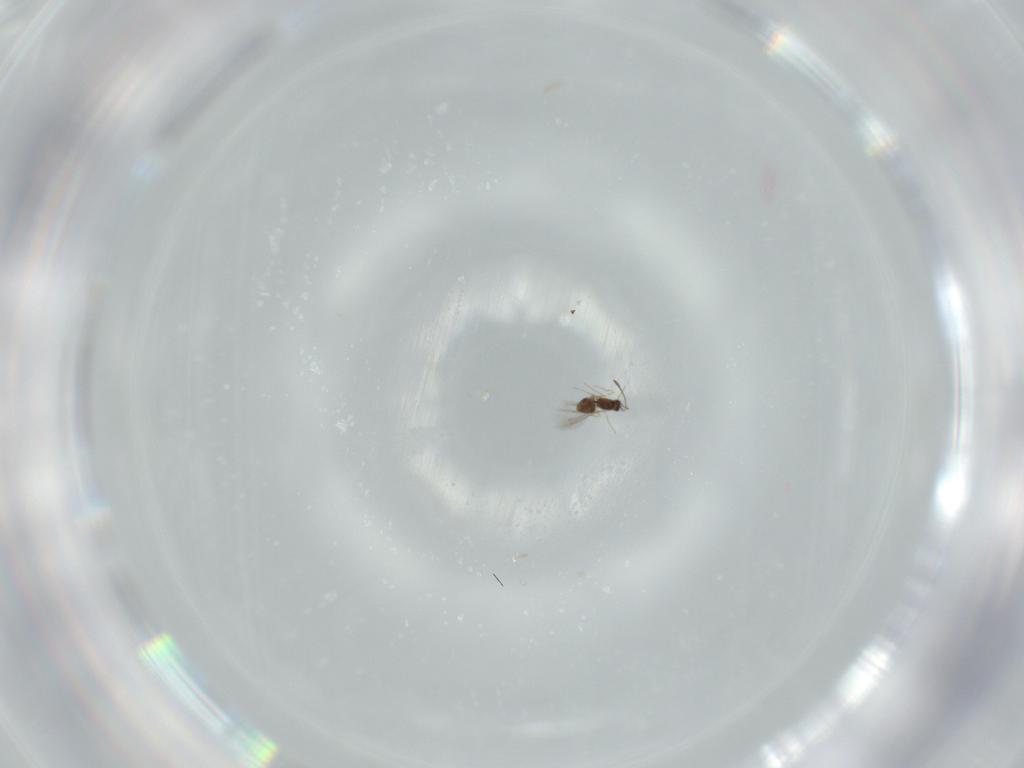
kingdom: Animalia
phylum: Arthropoda
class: Insecta
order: Hymenoptera
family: Mymaridae
